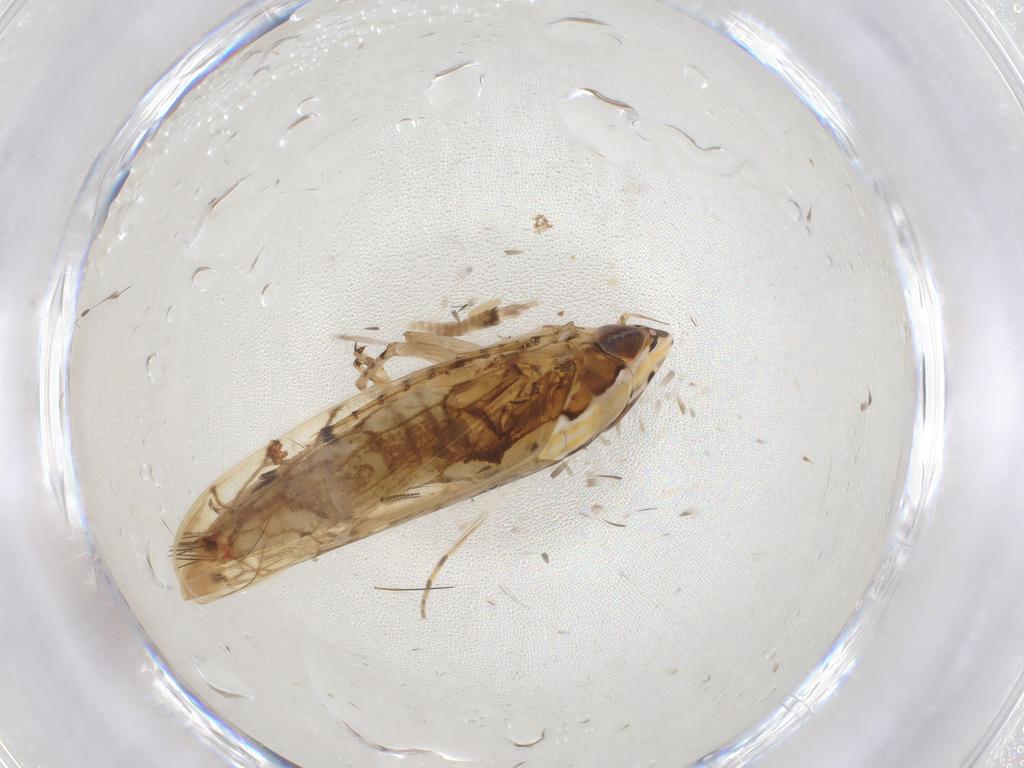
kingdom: Animalia
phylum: Arthropoda
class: Insecta
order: Hemiptera
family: Cicadellidae
